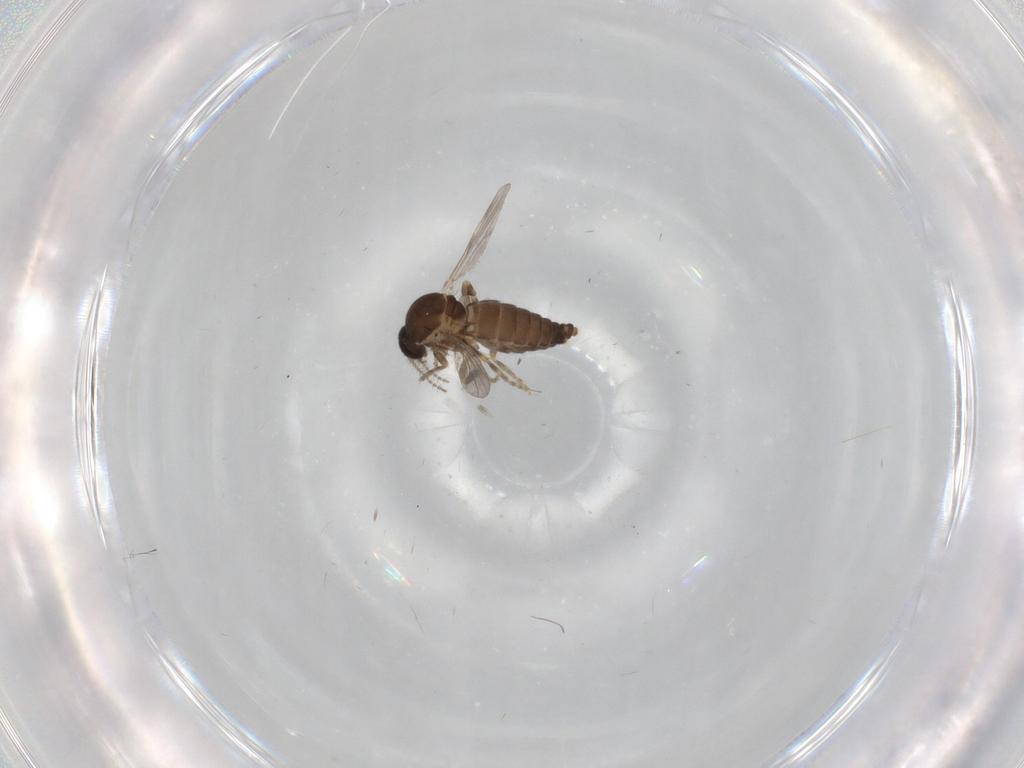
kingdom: Animalia
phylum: Arthropoda
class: Insecta
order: Diptera
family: Ceratopogonidae
